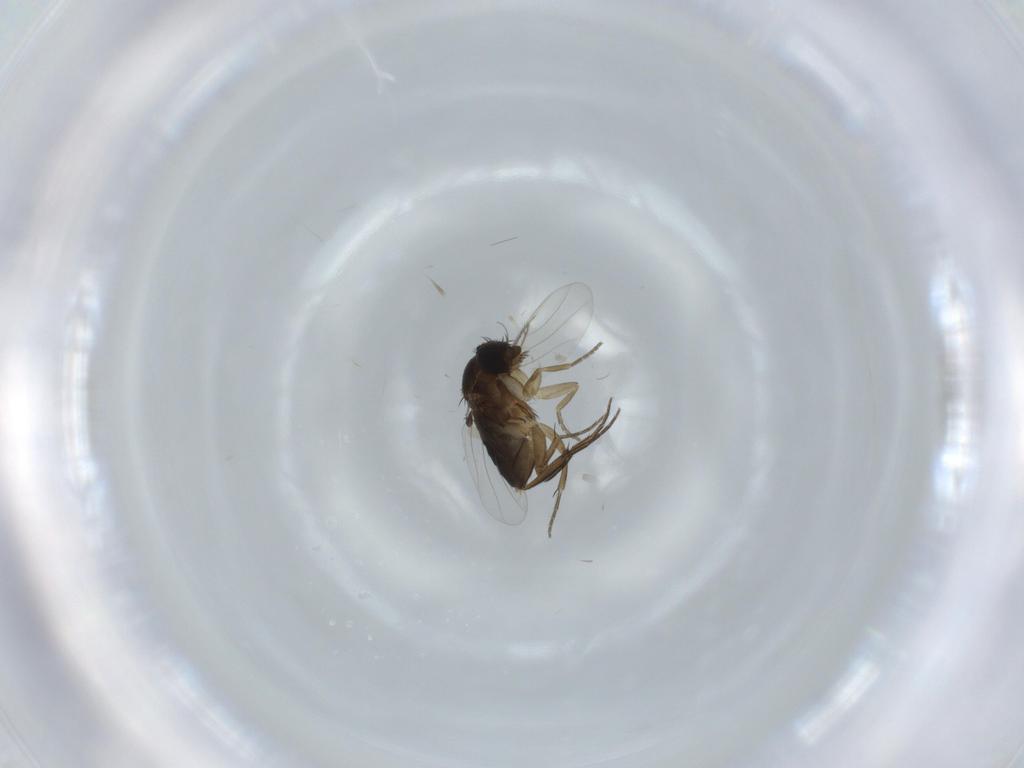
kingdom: Animalia
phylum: Arthropoda
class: Insecta
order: Diptera
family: Phoridae
